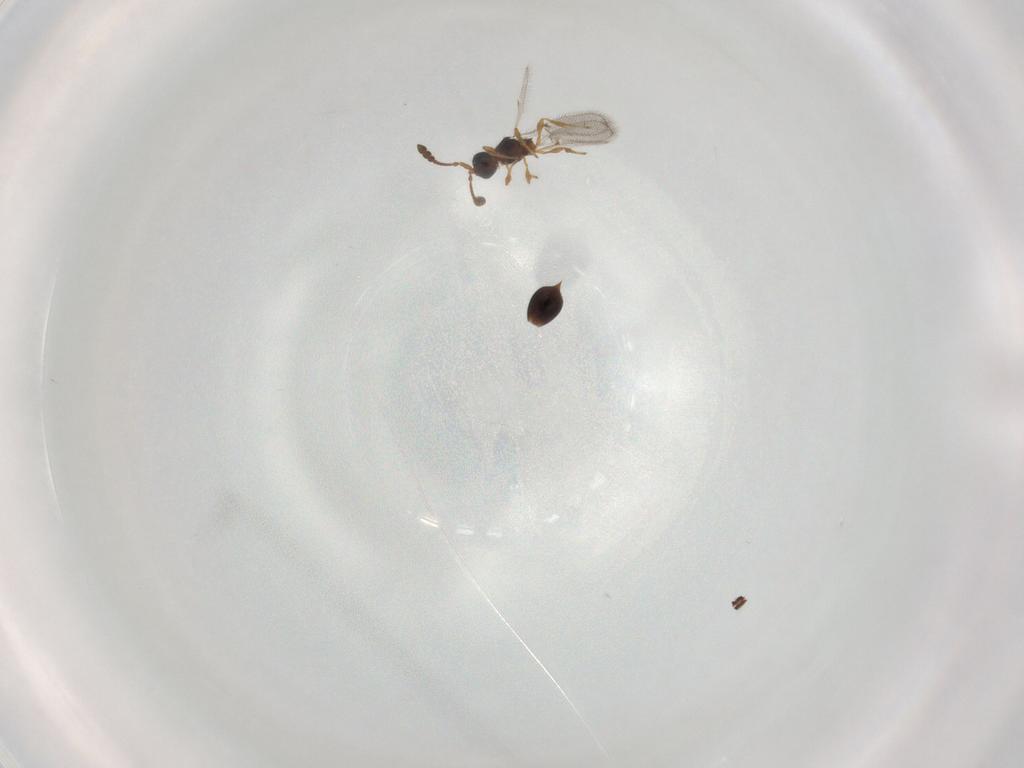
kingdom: Animalia
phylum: Arthropoda
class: Insecta
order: Hymenoptera
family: Diapriidae
